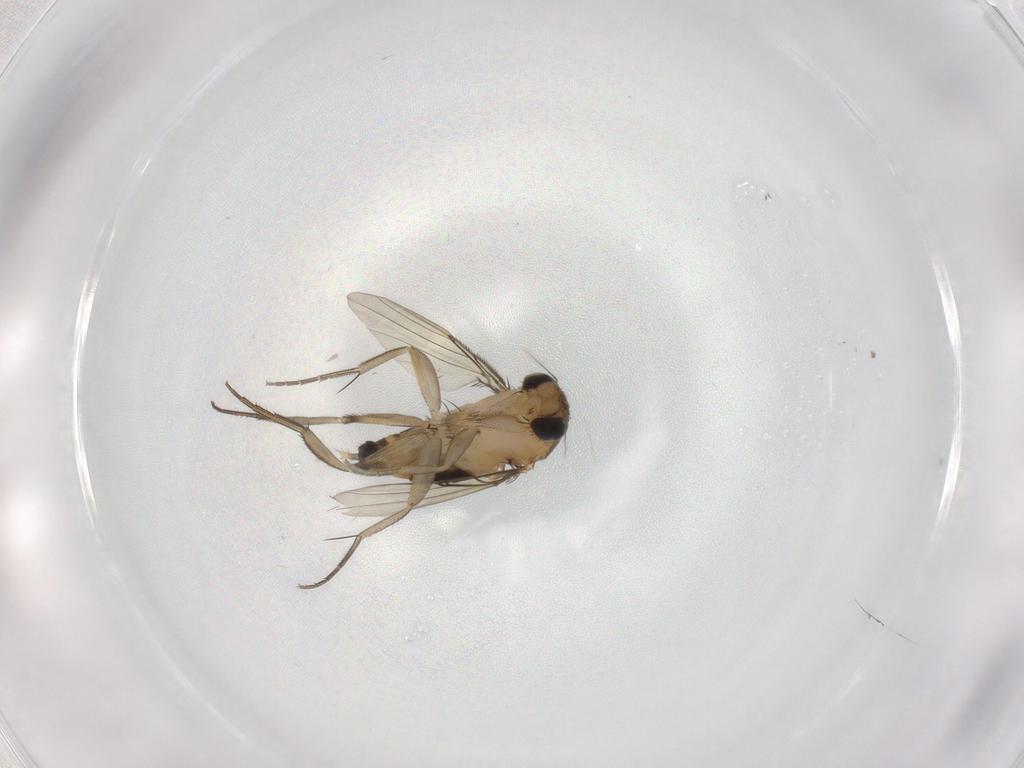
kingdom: Animalia
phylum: Arthropoda
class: Insecta
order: Diptera
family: Phoridae
